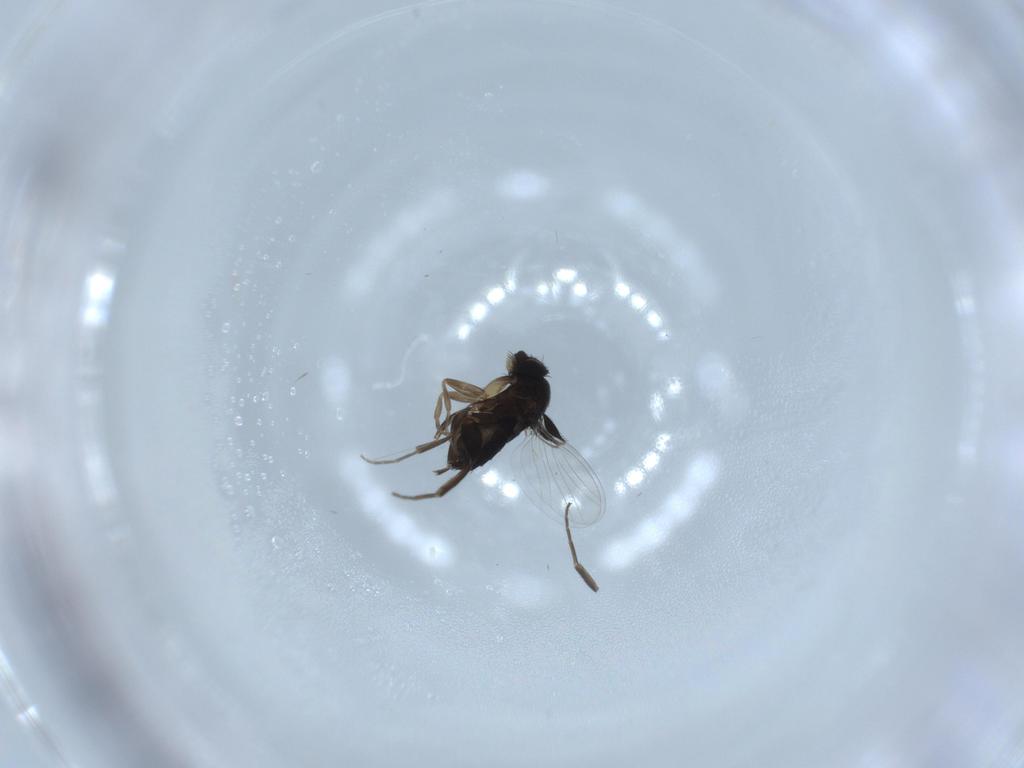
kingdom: Animalia
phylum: Arthropoda
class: Insecta
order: Diptera
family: Phoridae
